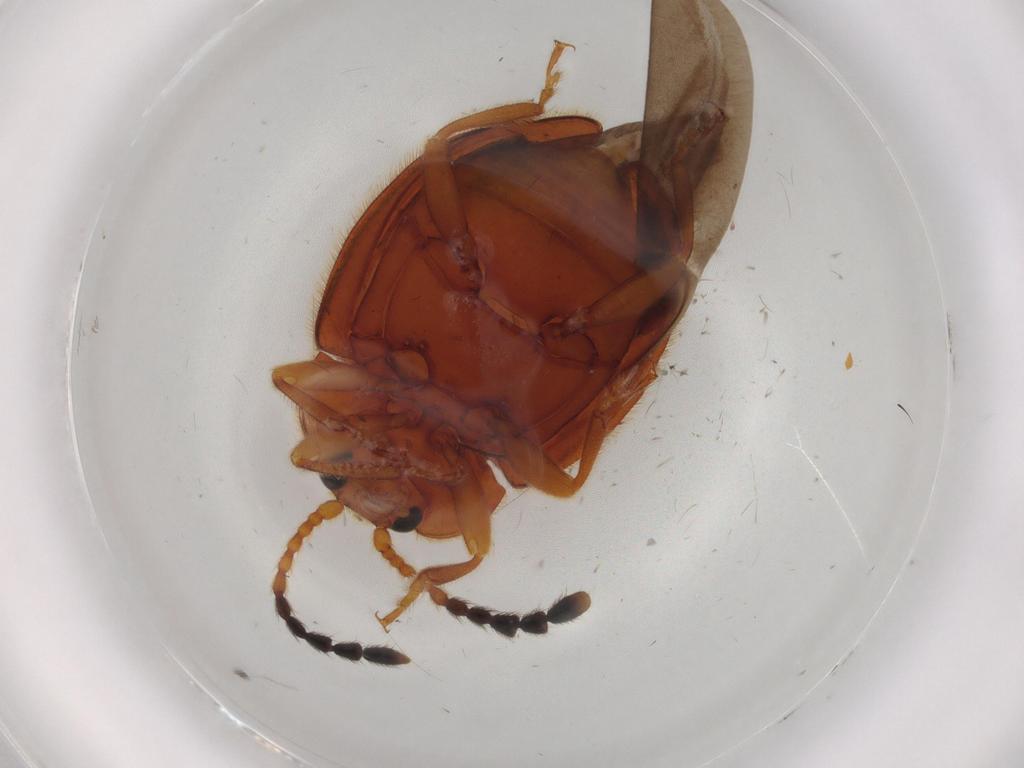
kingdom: Animalia
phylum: Arthropoda
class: Insecta
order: Coleoptera
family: Endomychidae
